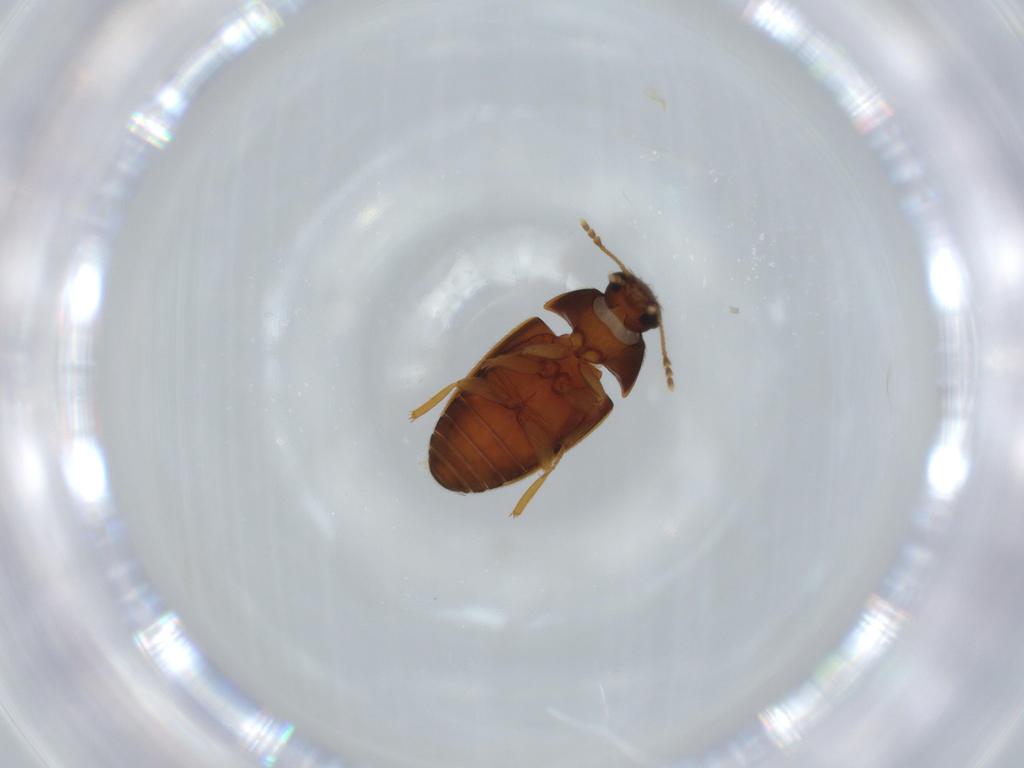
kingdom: Animalia
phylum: Arthropoda
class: Insecta
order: Coleoptera
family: Mycetophagidae
